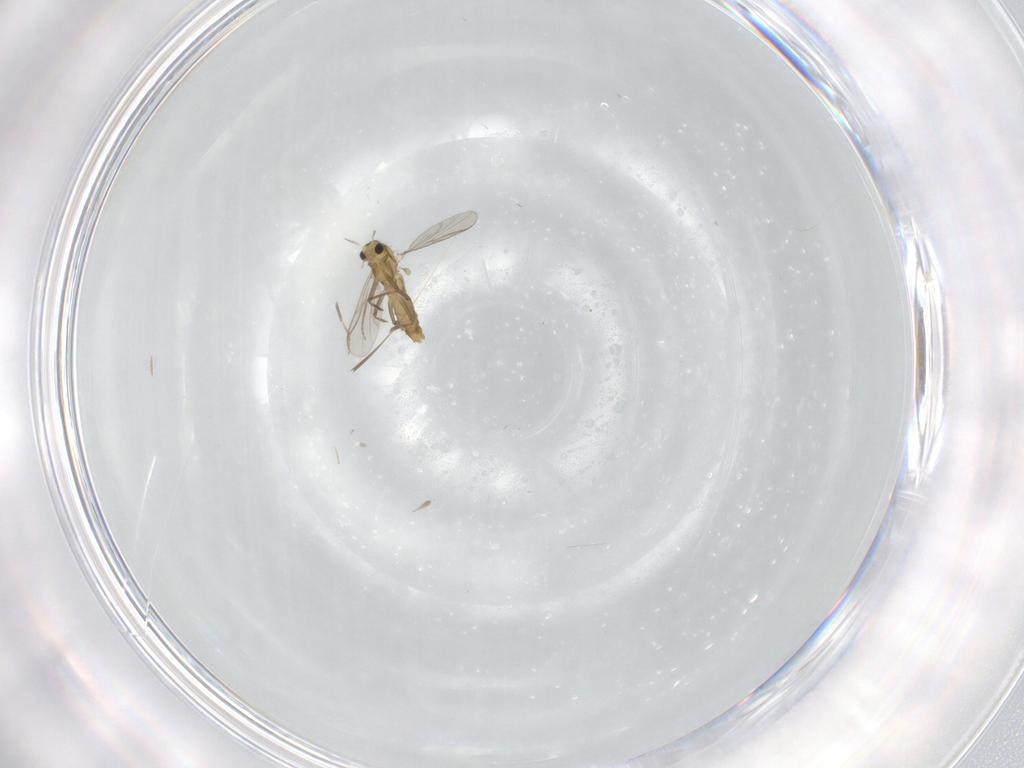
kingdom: Animalia
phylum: Arthropoda
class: Insecta
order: Diptera
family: Chironomidae
